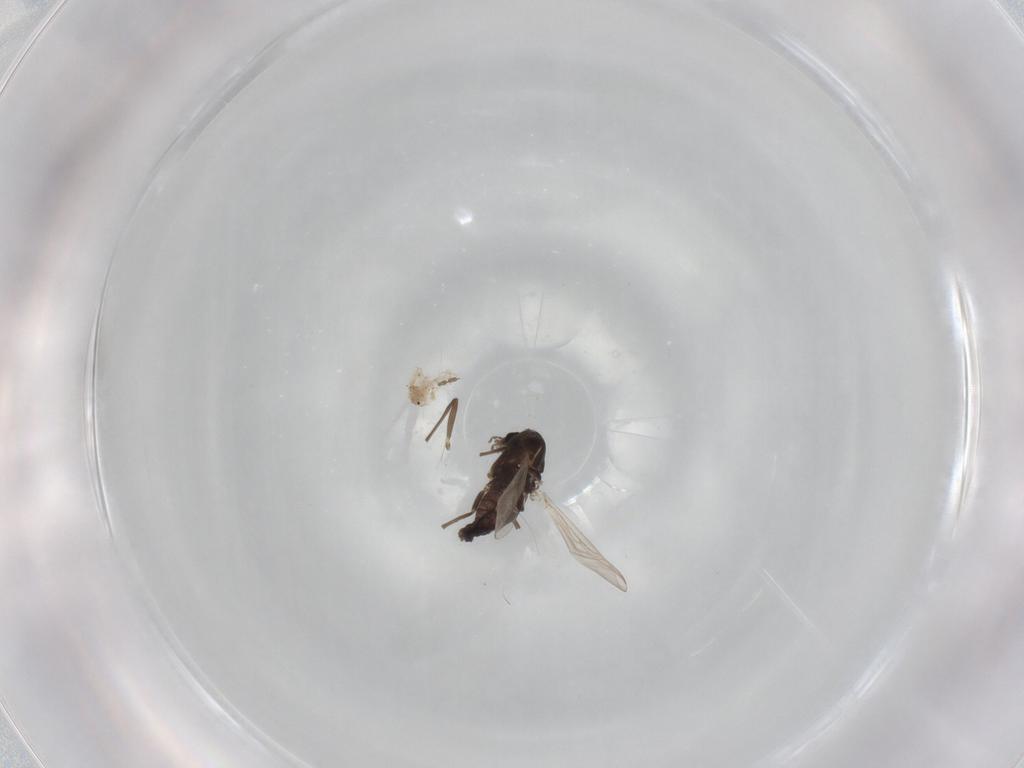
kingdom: Animalia
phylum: Arthropoda
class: Insecta
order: Diptera
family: Chironomidae
